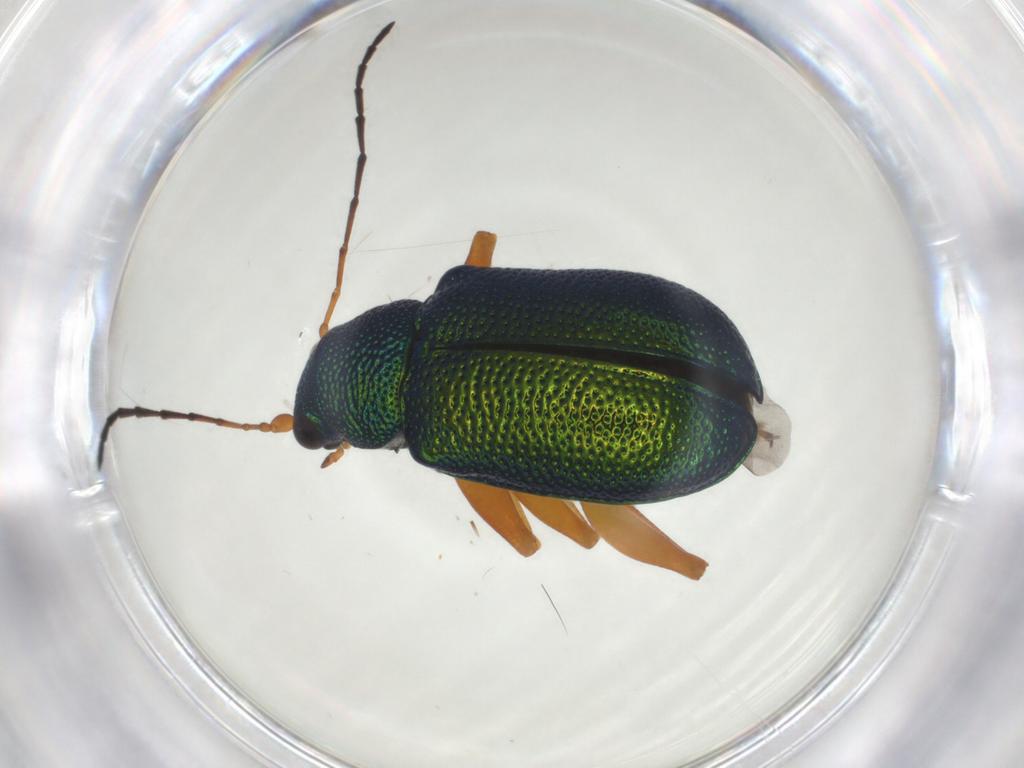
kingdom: Animalia
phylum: Arthropoda
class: Insecta
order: Coleoptera
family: Chrysomelidae
